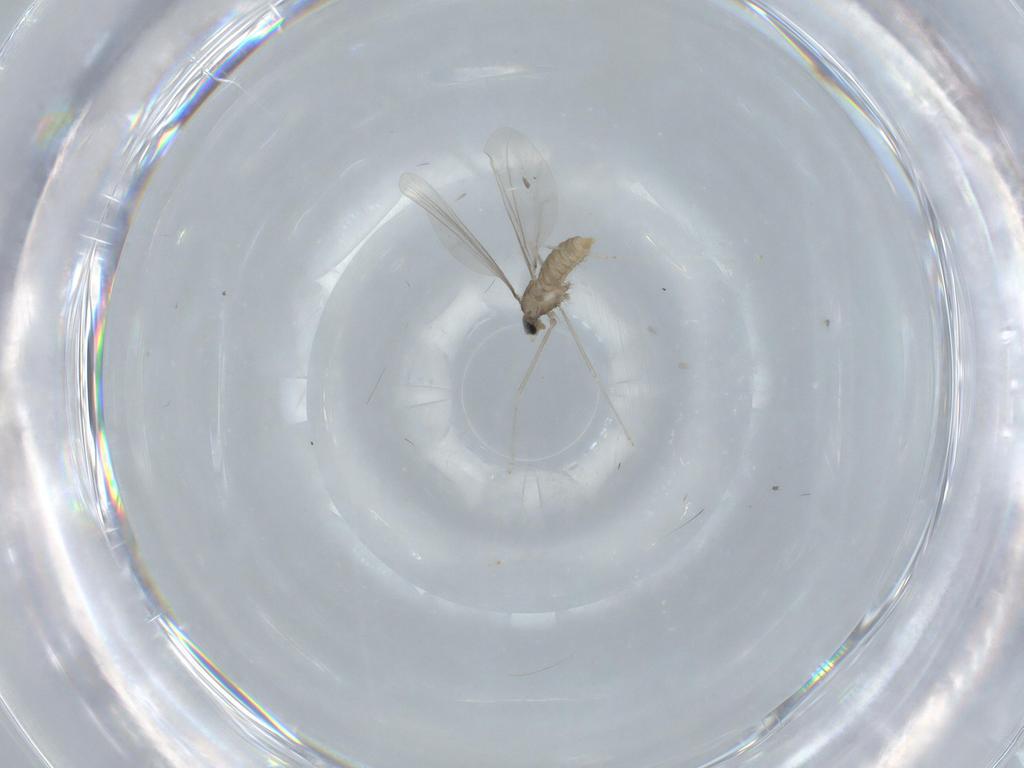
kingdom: Animalia
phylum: Arthropoda
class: Insecta
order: Diptera
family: Cecidomyiidae
